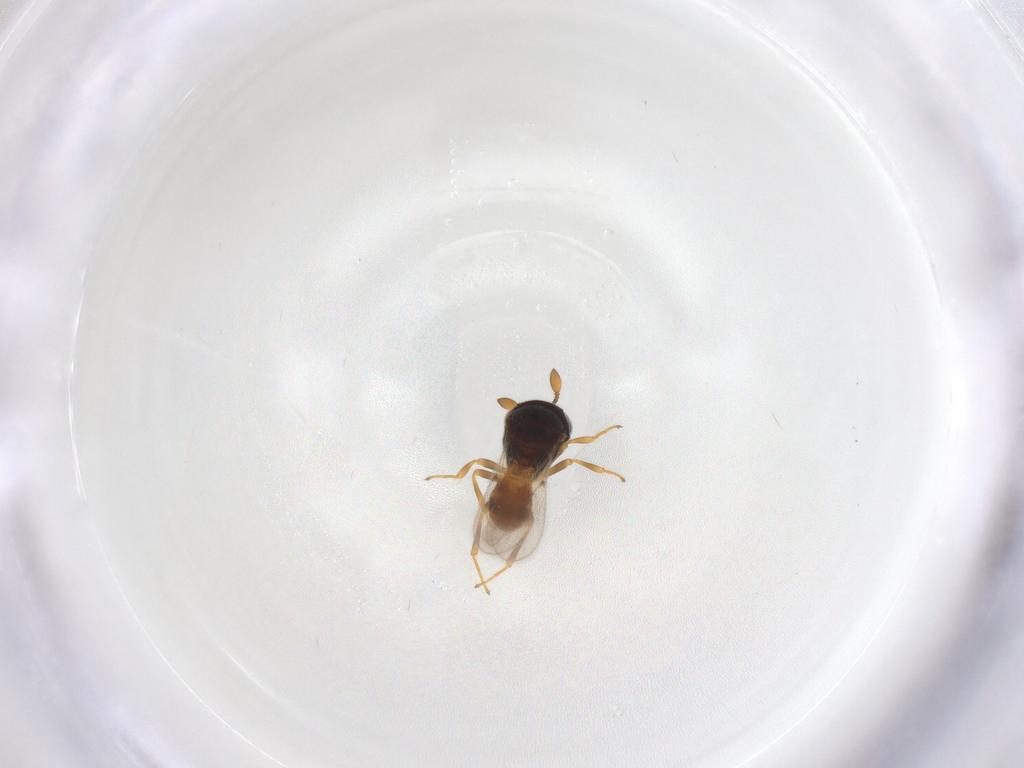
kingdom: Animalia
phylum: Arthropoda
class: Insecta
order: Hymenoptera
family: Scelionidae
